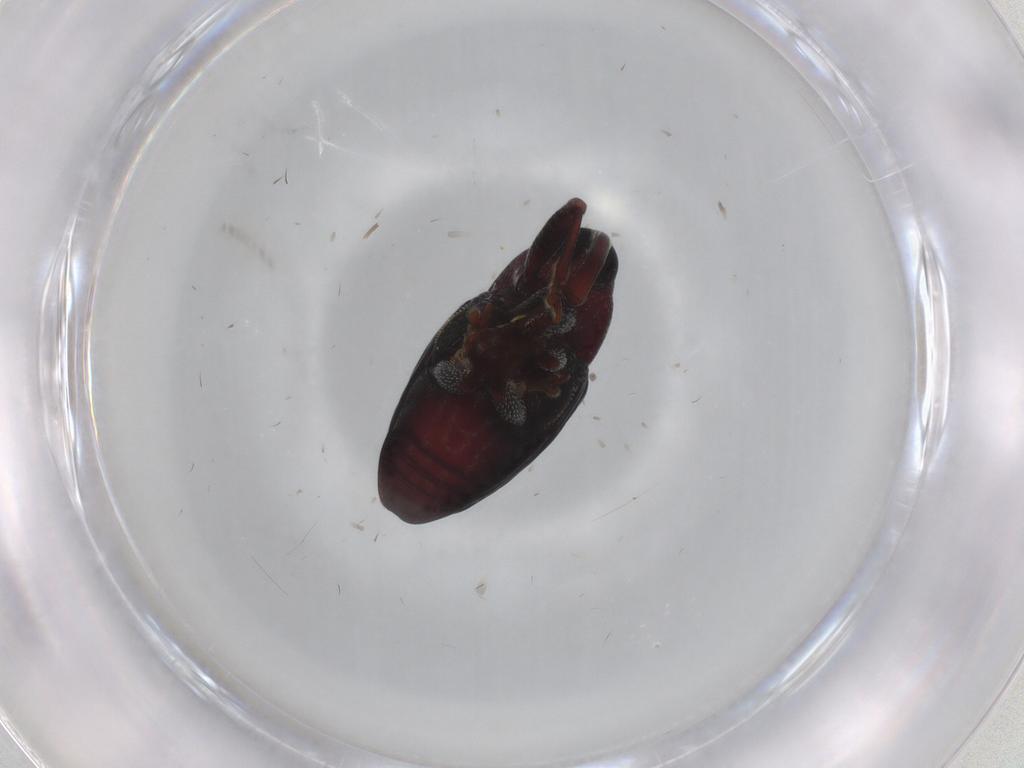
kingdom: Animalia
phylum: Arthropoda
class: Insecta
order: Coleoptera
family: Curculionidae
